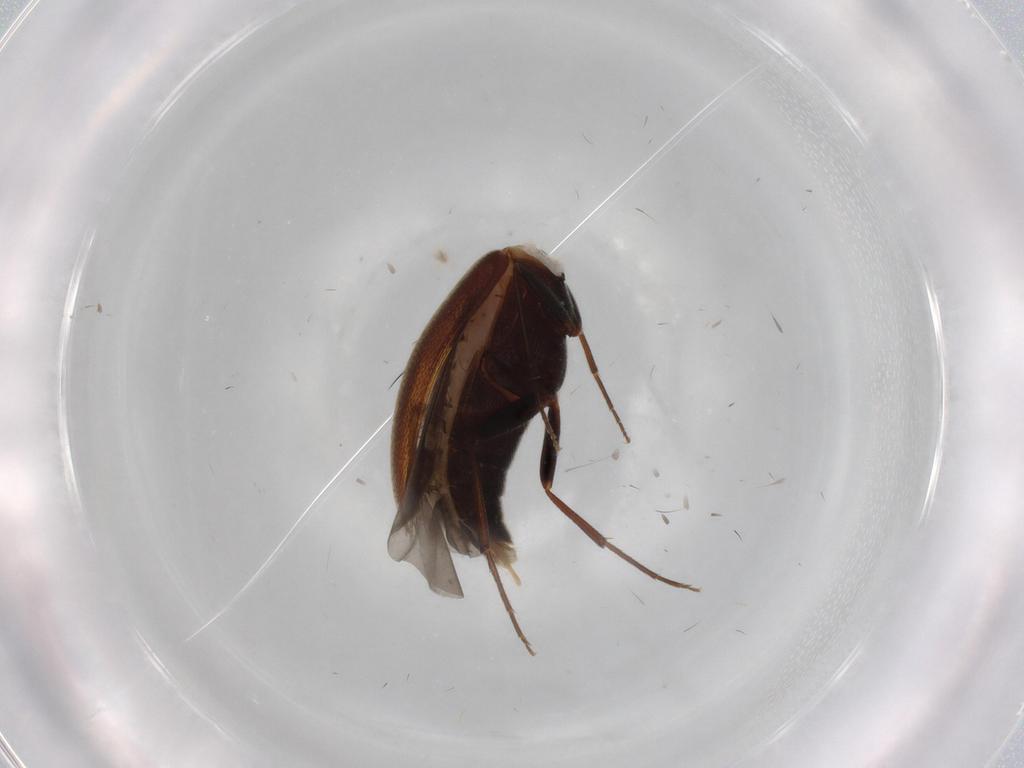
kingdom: Animalia
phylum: Arthropoda
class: Insecta
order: Coleoptera
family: Melandryidae
